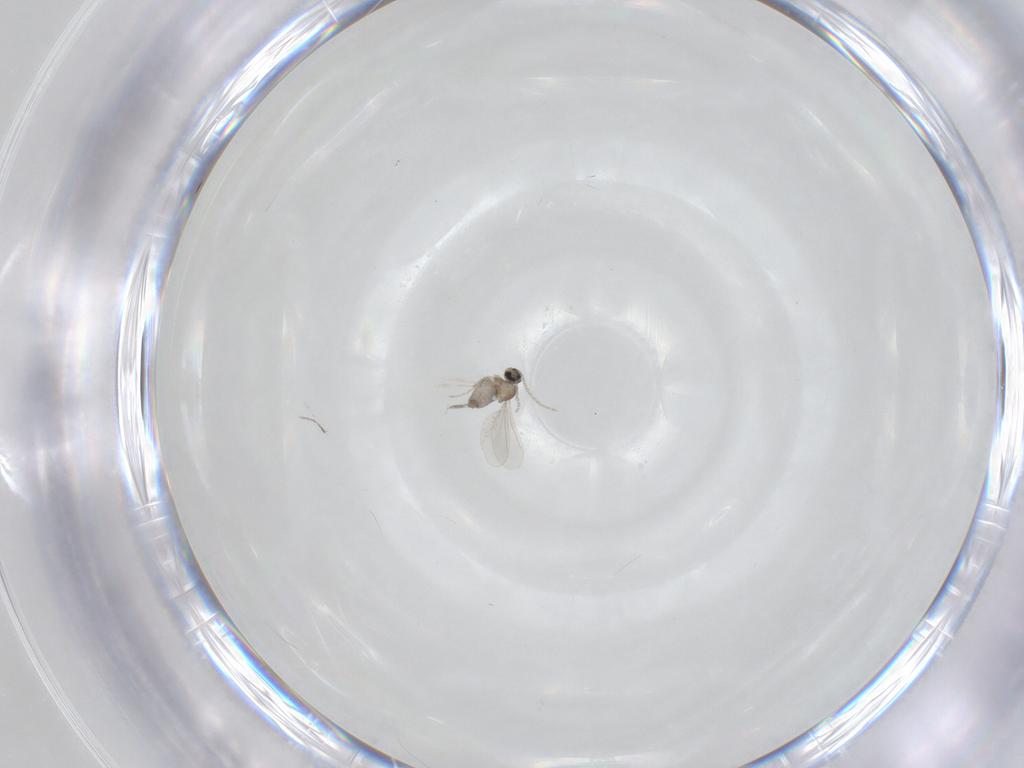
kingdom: Animalia
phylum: Arthropoda
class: Insecta
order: Diptera
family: Cecidomyiidae
